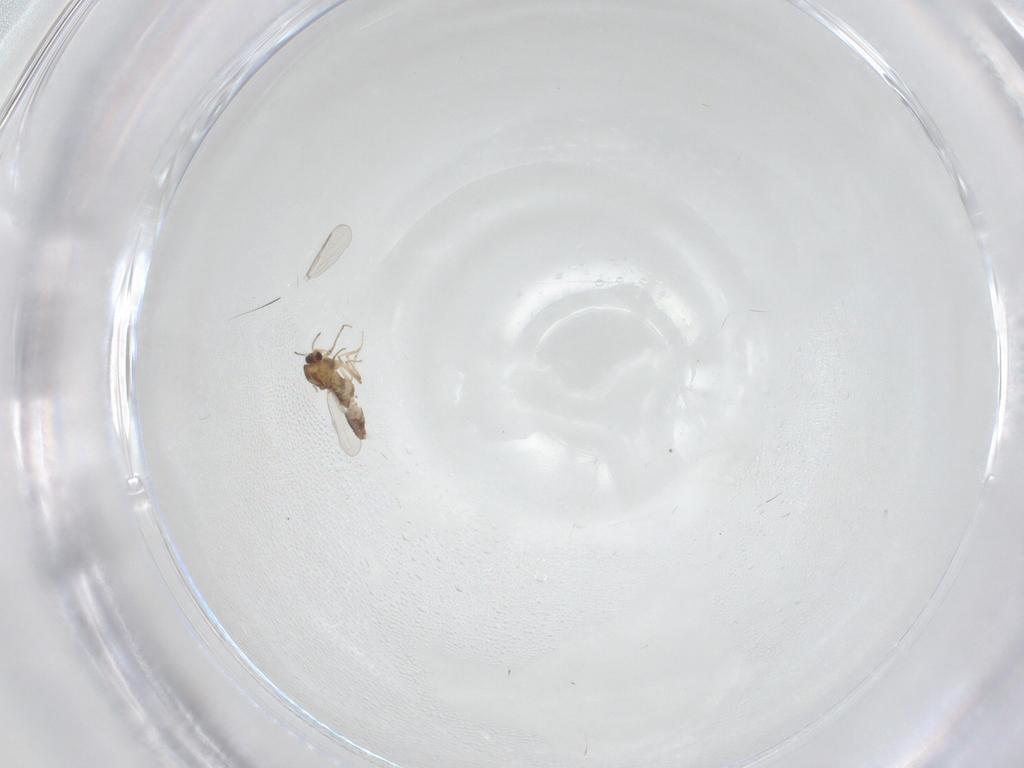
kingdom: Animalia
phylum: Arthropoda
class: Insecta
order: Diptera
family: Chironomidae
